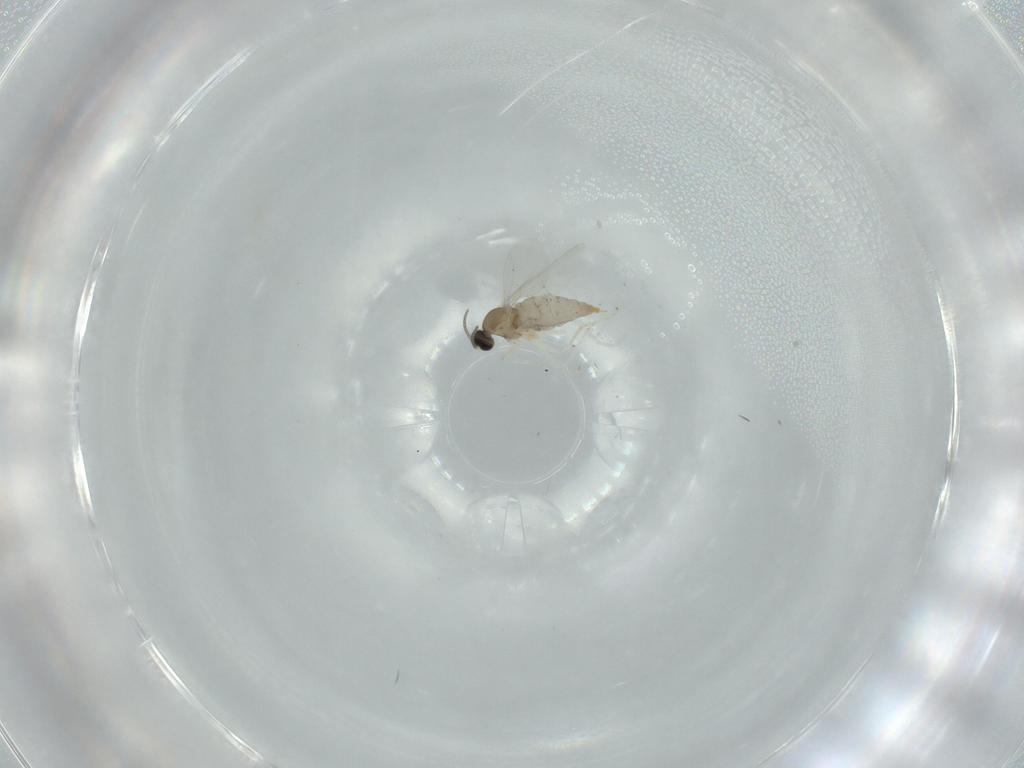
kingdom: Animalia
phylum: Arthropoda
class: Insecta
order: Diptera
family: Cecidomyiidae
